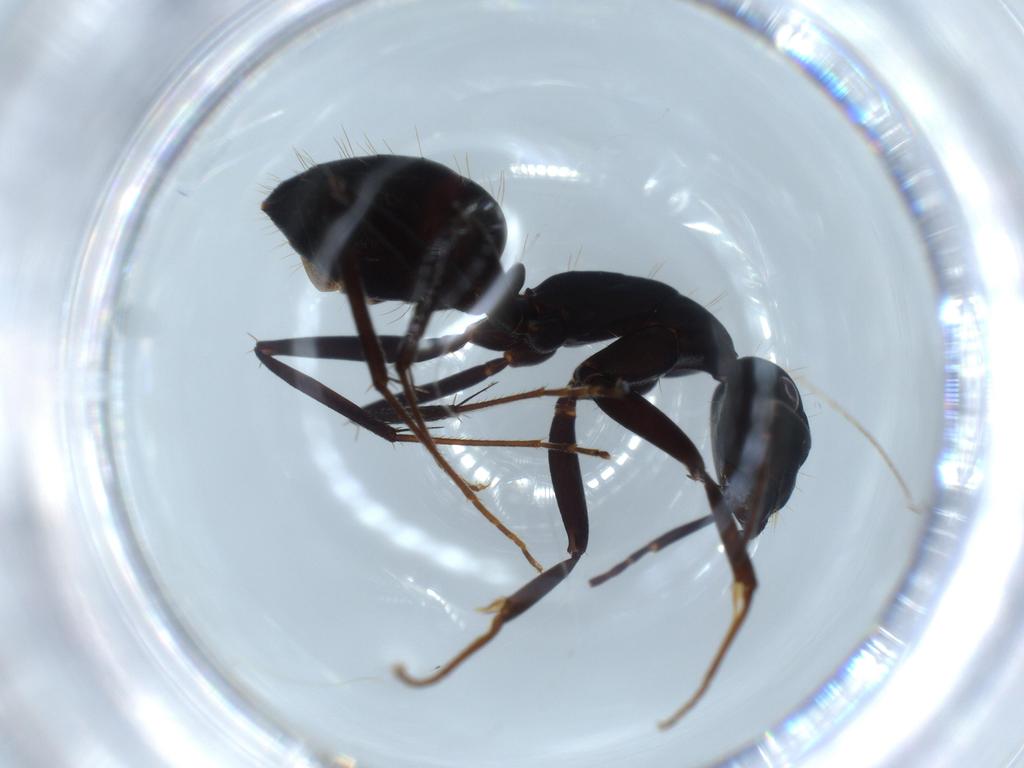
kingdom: Animalia
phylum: Arthropoda
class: Insecta
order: Hymenoptera
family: Formicidae
